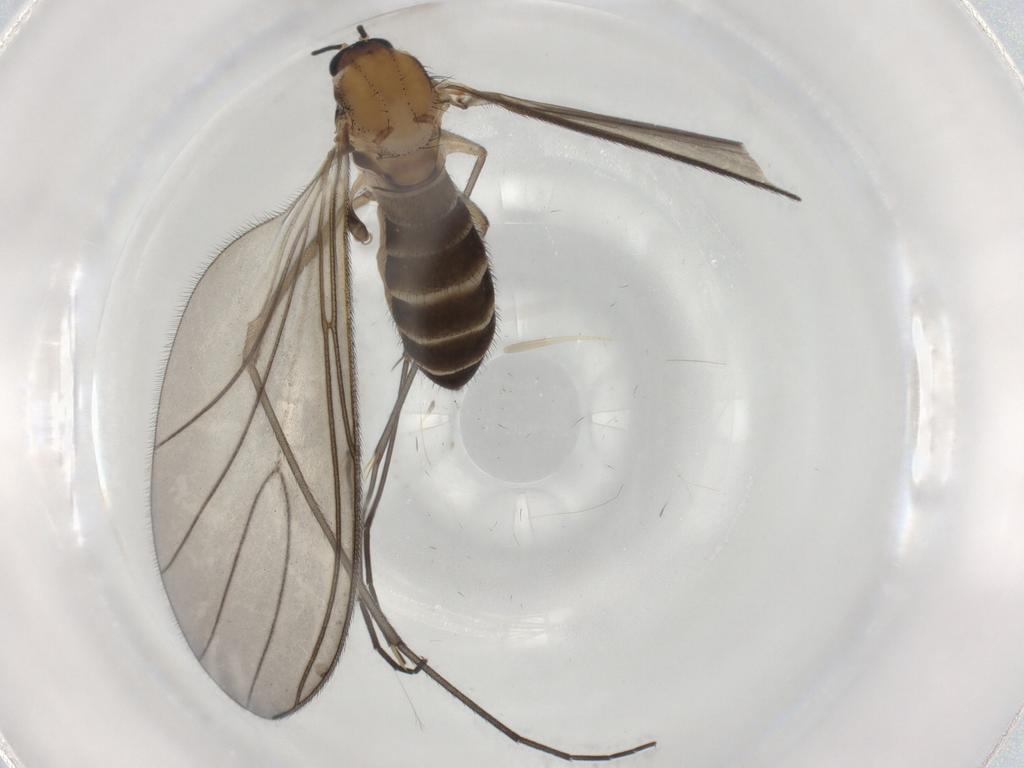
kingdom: Animalia
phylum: Arthropoda
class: Insecta
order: Diptera
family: Sciaridae
